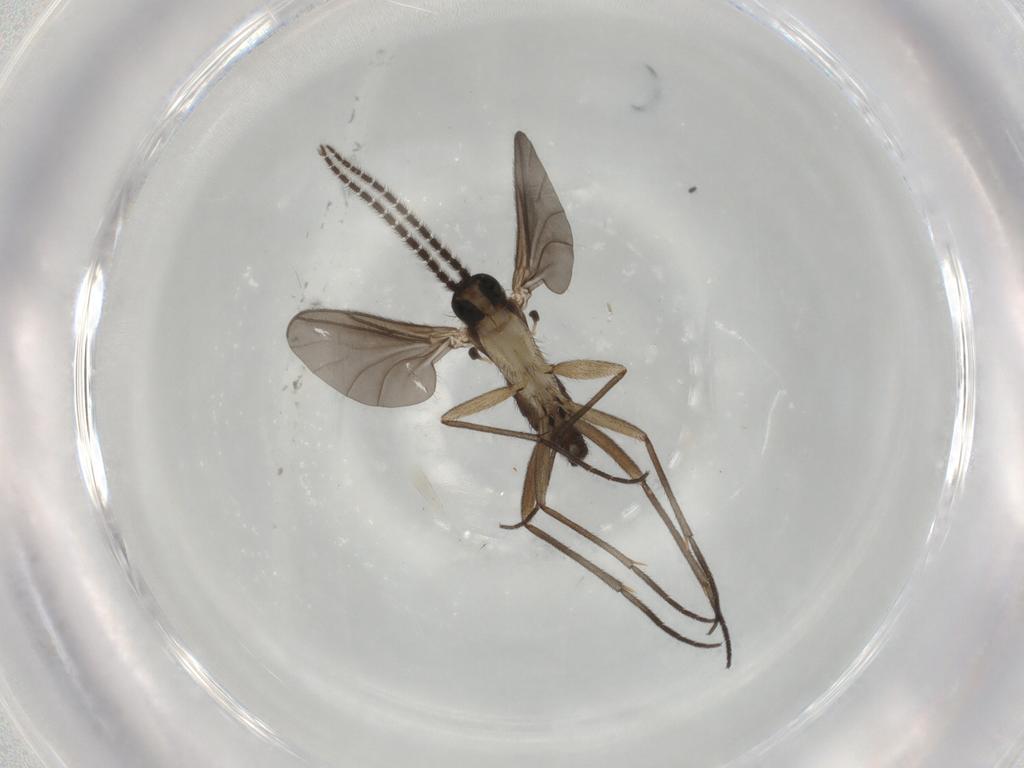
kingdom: Animalia
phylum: Arthropoda
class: Insecta
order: Diptera
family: Sciaridae
